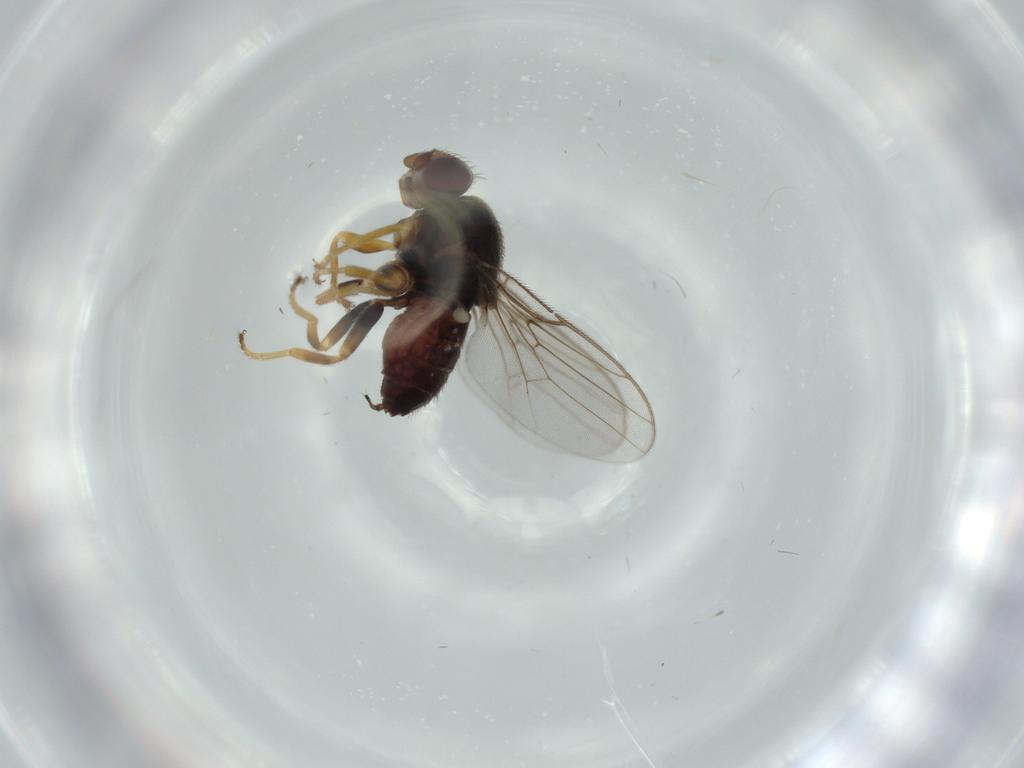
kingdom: Animalia
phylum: Arthropoda
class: Insecta
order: Diptera
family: Chloropidae
